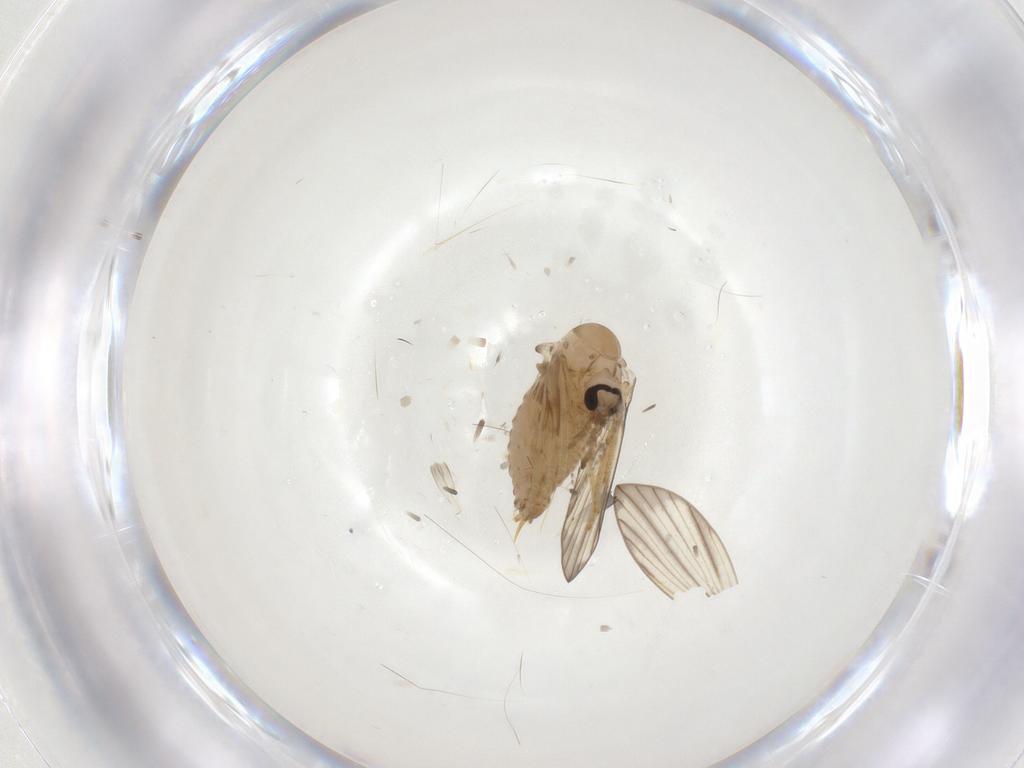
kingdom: Animalia
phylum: Arthropoda
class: Insecta
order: Diptera
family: Psychodidae
